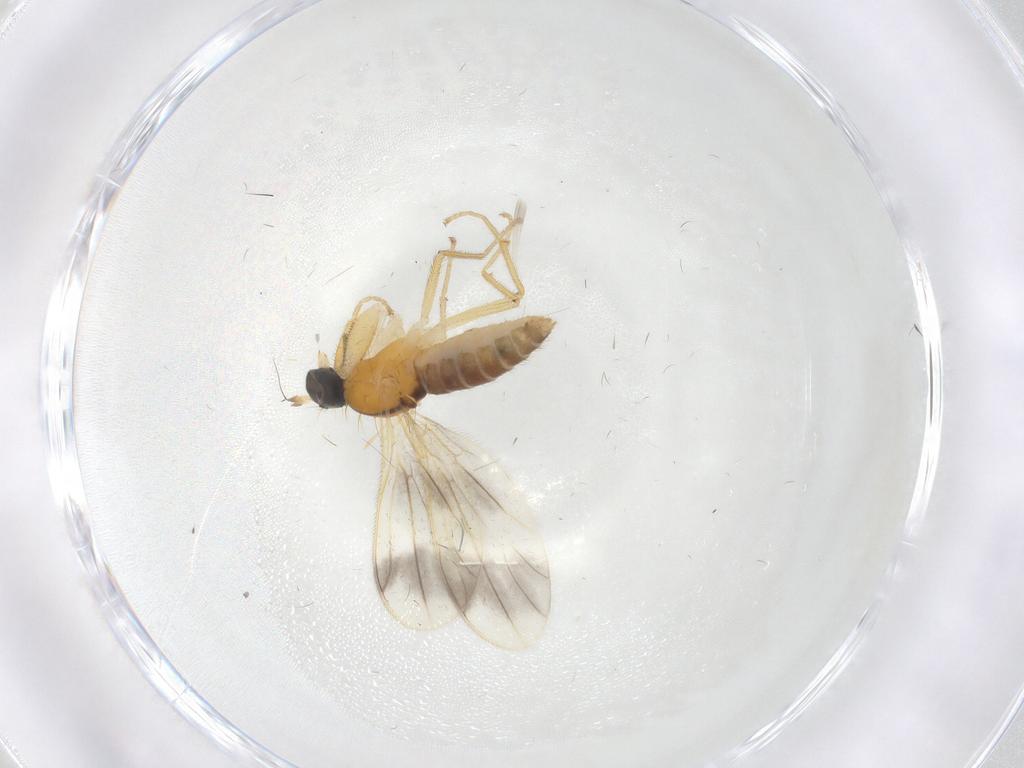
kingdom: Animalia
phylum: Arthropoda
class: Insecta
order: Diptera
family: Empididae
